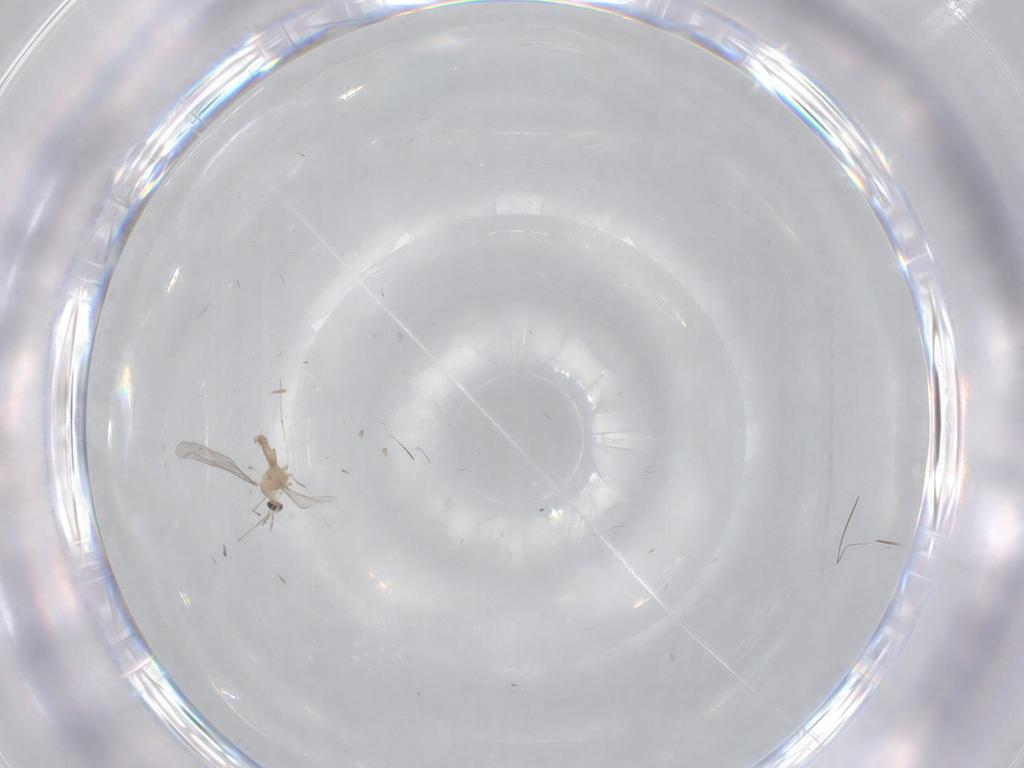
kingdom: Animalia
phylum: Arthropoda
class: Insecta
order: Diptera
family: Phoridae
